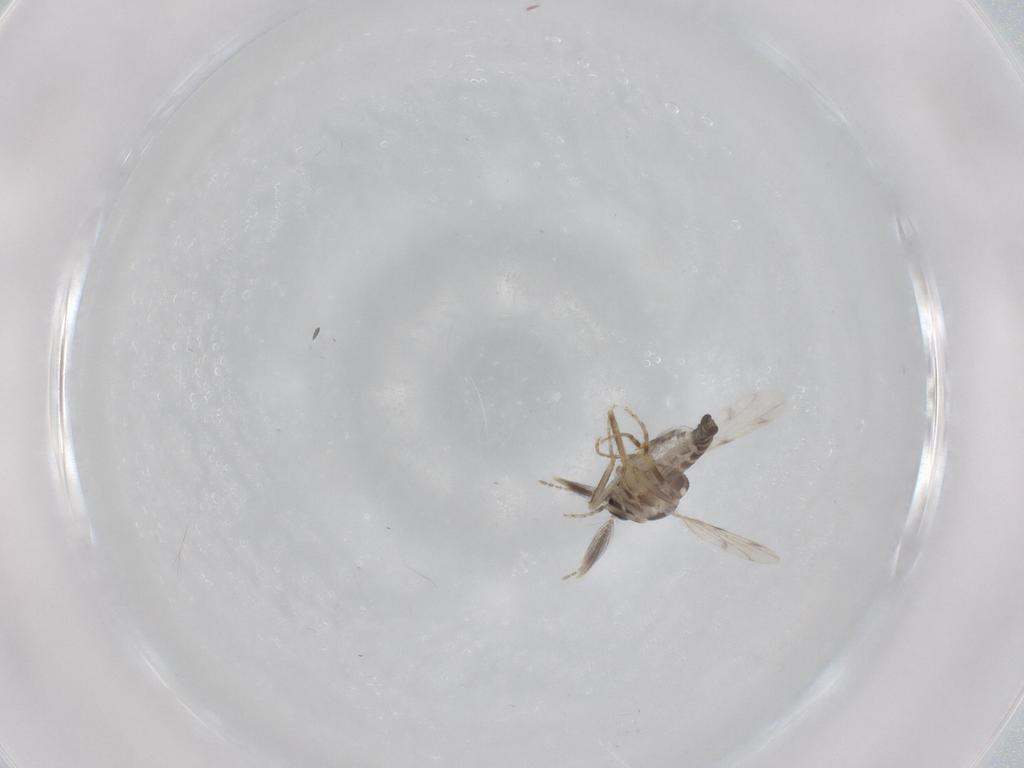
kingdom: Animalia
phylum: Arthropoda
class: Insecta
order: Diptera
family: Ceratopogonidae
